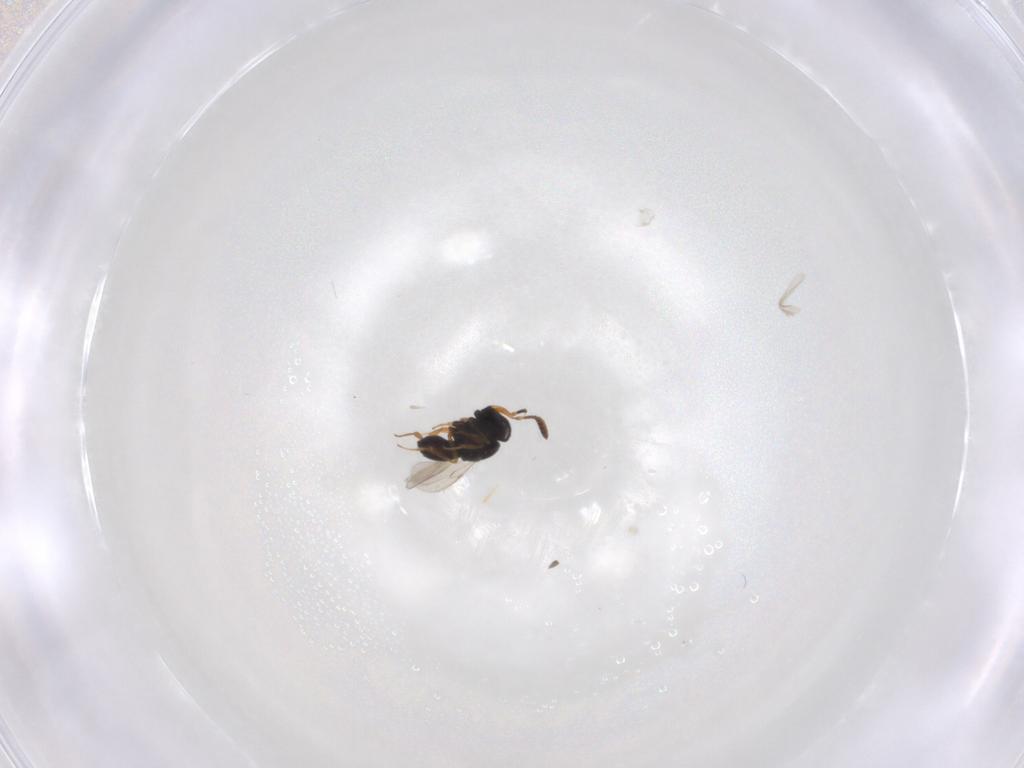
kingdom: Animalia
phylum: Arthropoda
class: Insecta
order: Hymenoptera
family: Scelionidae
